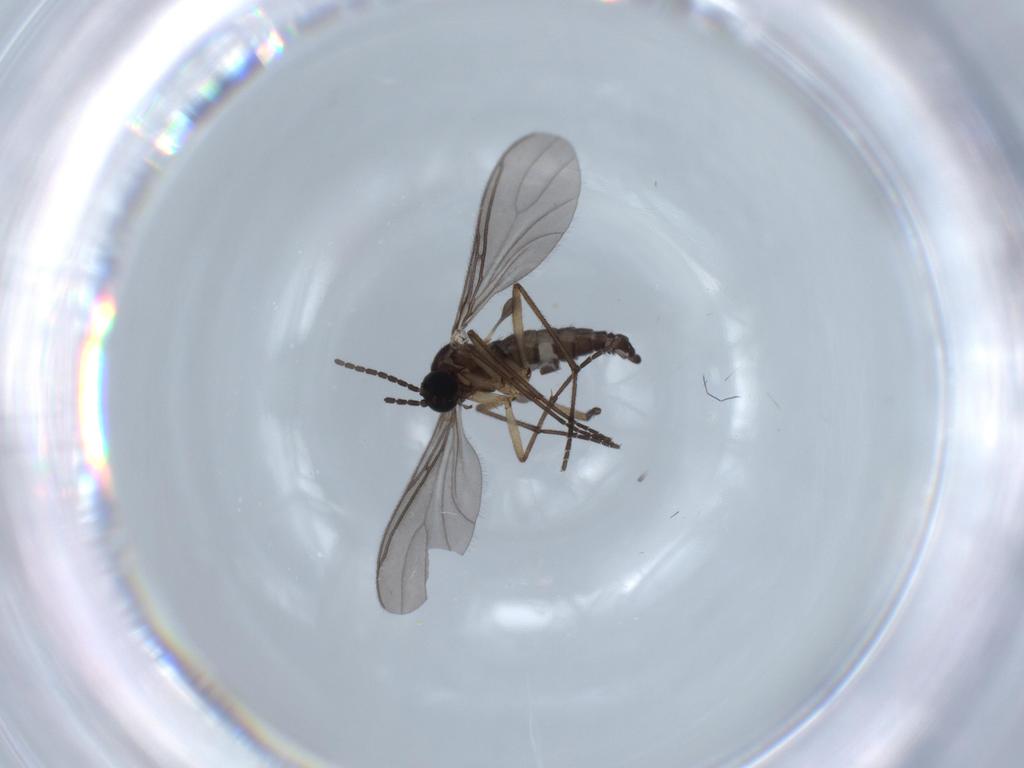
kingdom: Animalia
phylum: Arthropoda
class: Insecta
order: Diptera
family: Sciaridae
